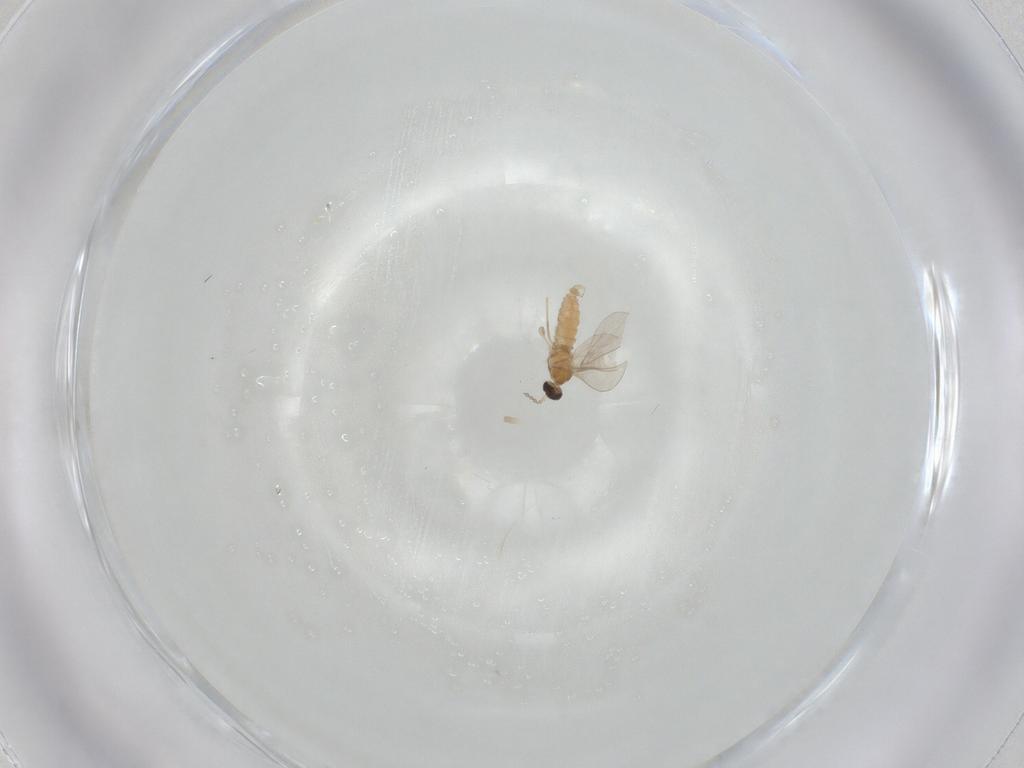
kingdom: Animalia
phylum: Arthropoda
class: Insecta
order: Diptera
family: Cecidomyiidae
